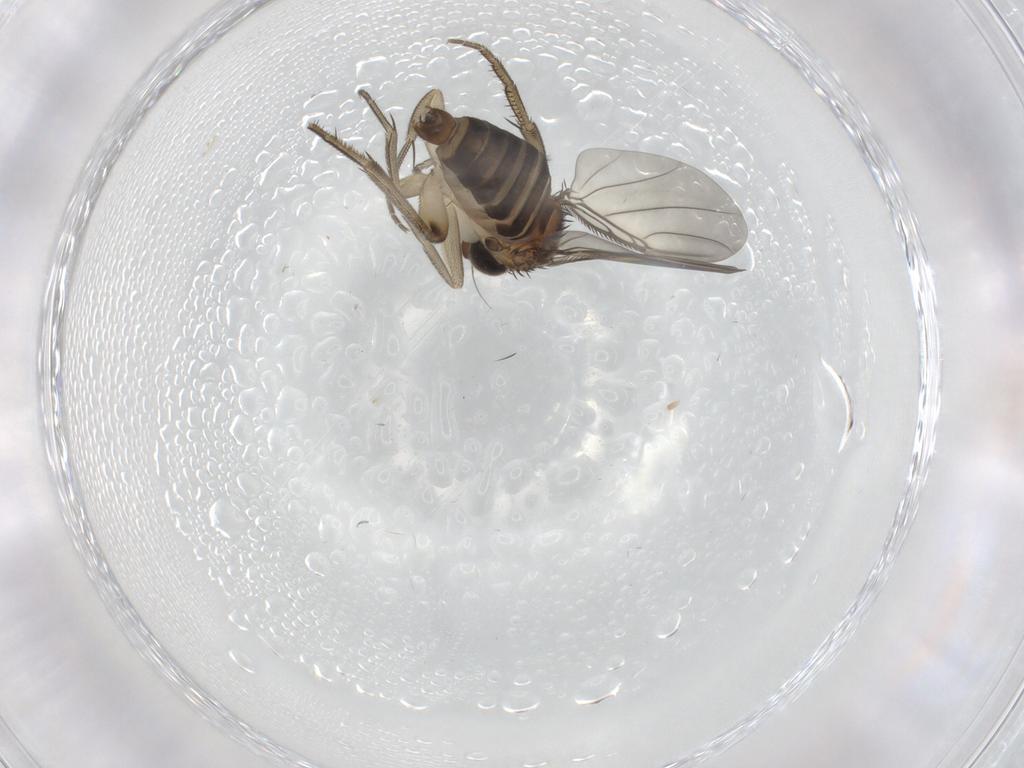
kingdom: Animalia
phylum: Arthropoda
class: Insecta
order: Diptera
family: Phoridae
